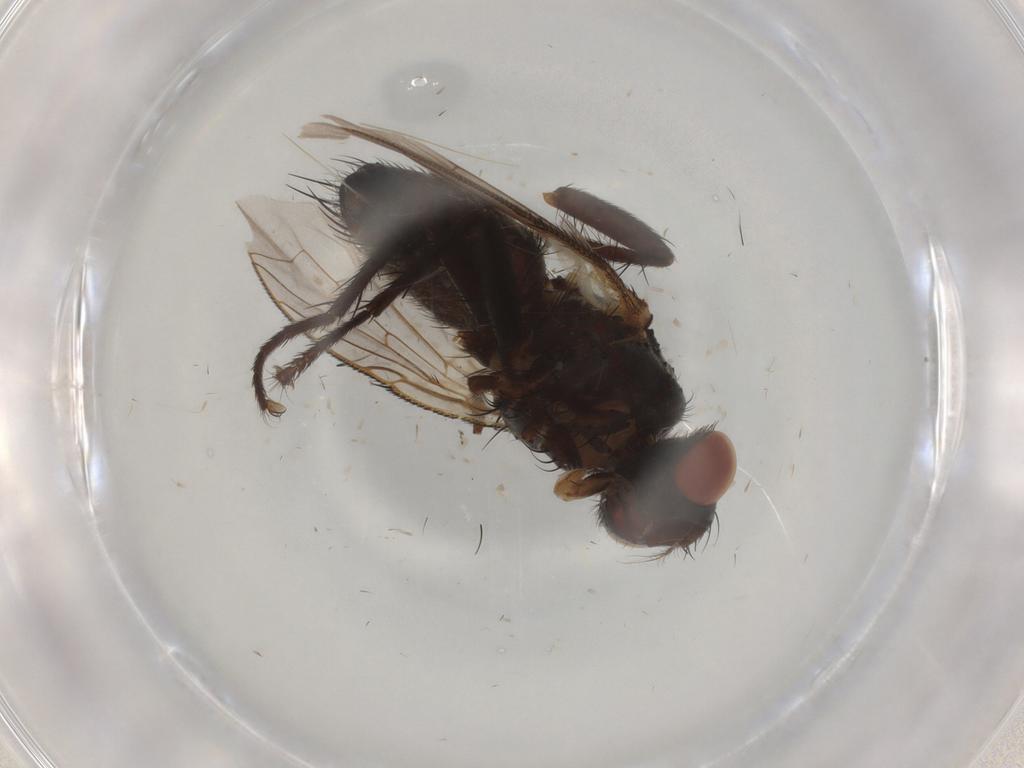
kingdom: Animalia
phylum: Arthropoda
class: Insecta
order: Diptera
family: Sarcophagidae
